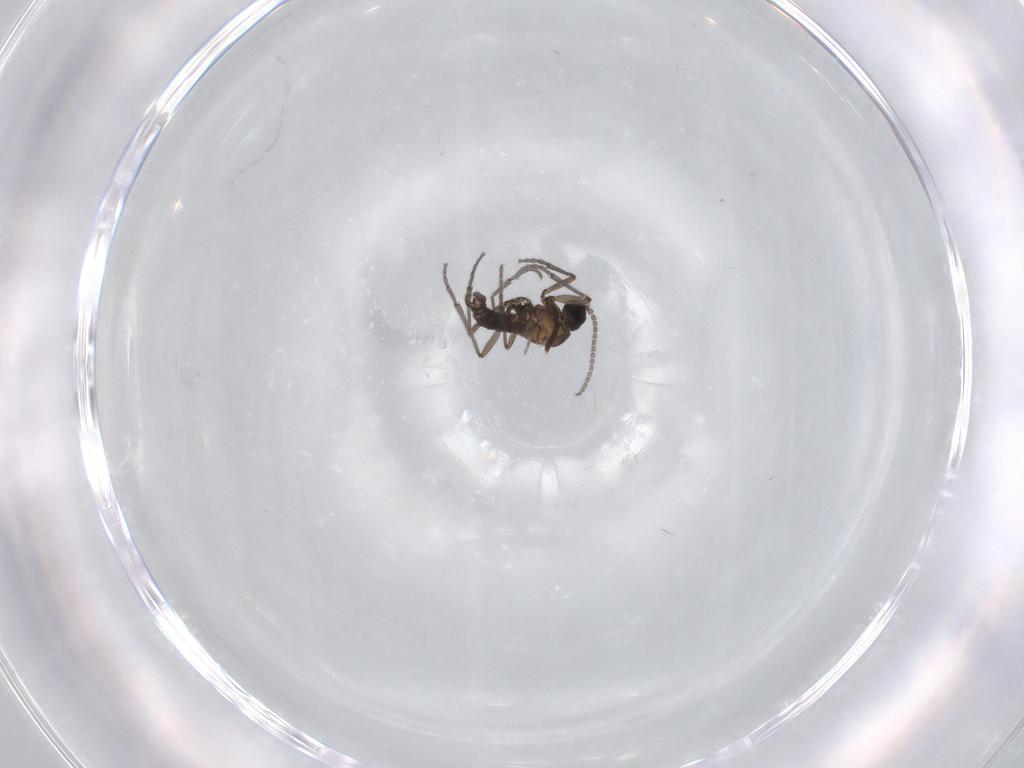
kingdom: Animalia
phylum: Arthropoda
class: Insecta
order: Diptera
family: Sciaridae
